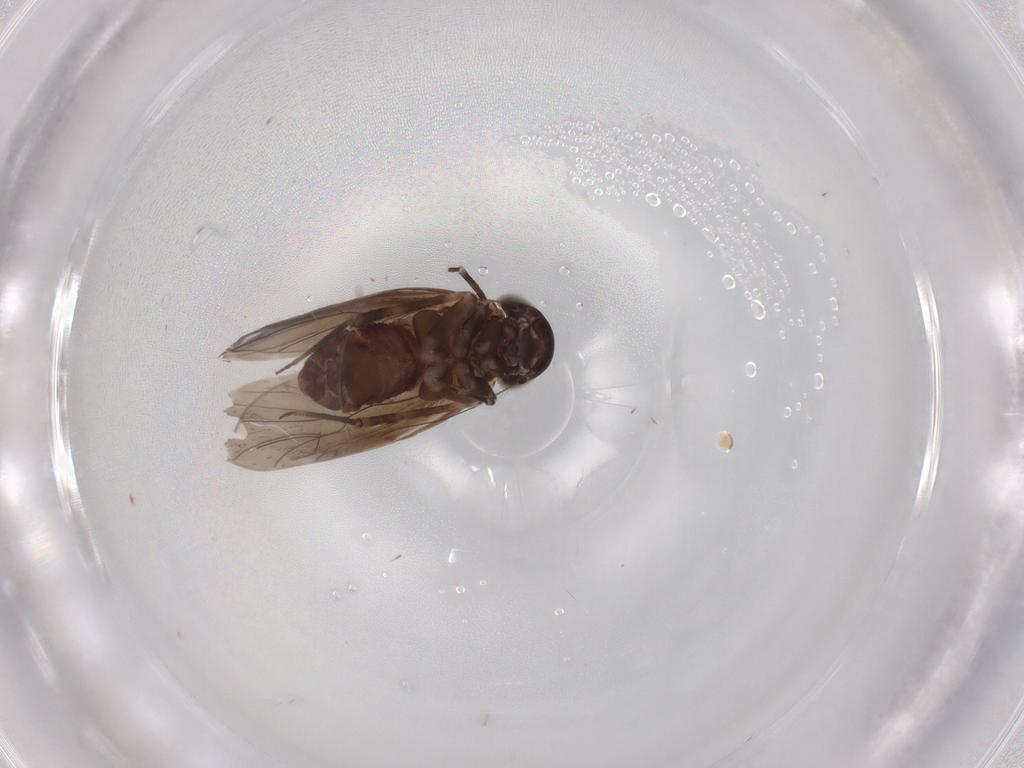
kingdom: Animalia
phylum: Arthropoda
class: Insecta
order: Psocodea
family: Amphientomidae
